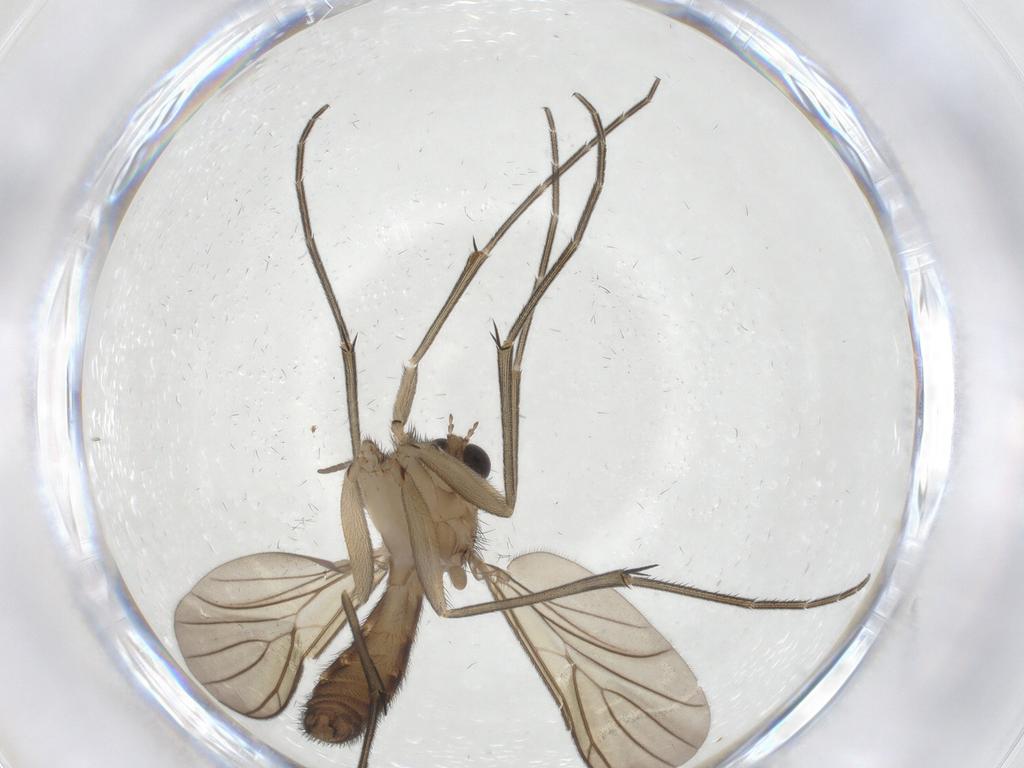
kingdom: Animalia
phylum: Arthropoda
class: Insecta
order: Diptera
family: Keroplatidae
